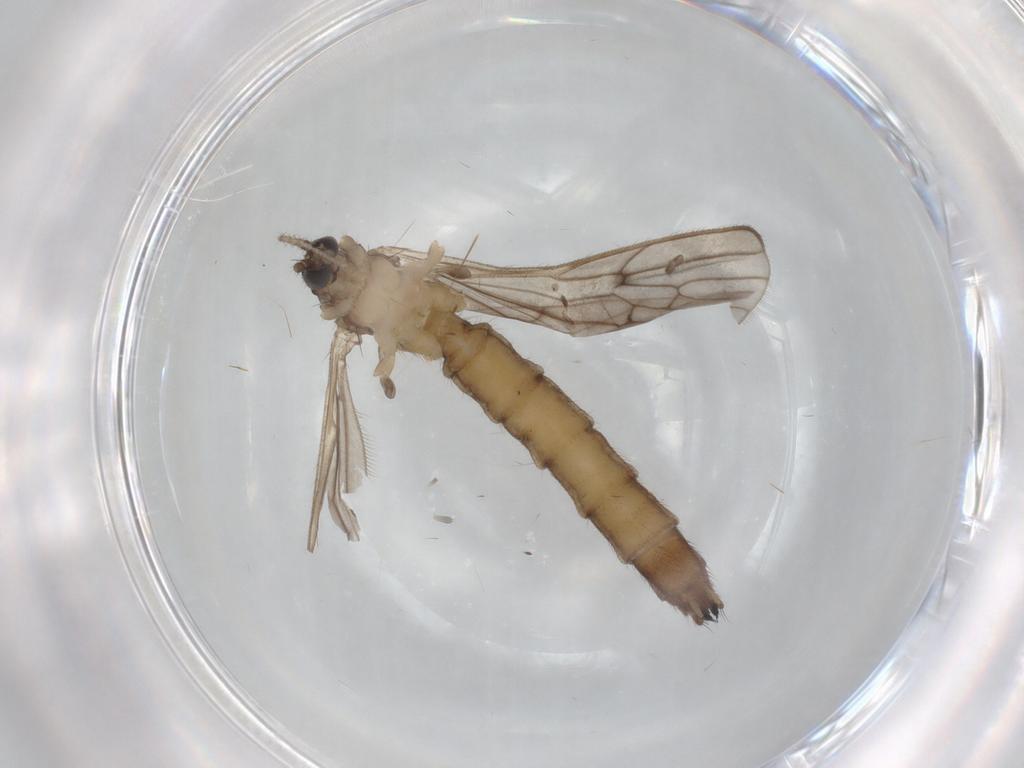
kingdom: Animalia
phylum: Arthropoda
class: Insecta
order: Diptera
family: Limoniidae
